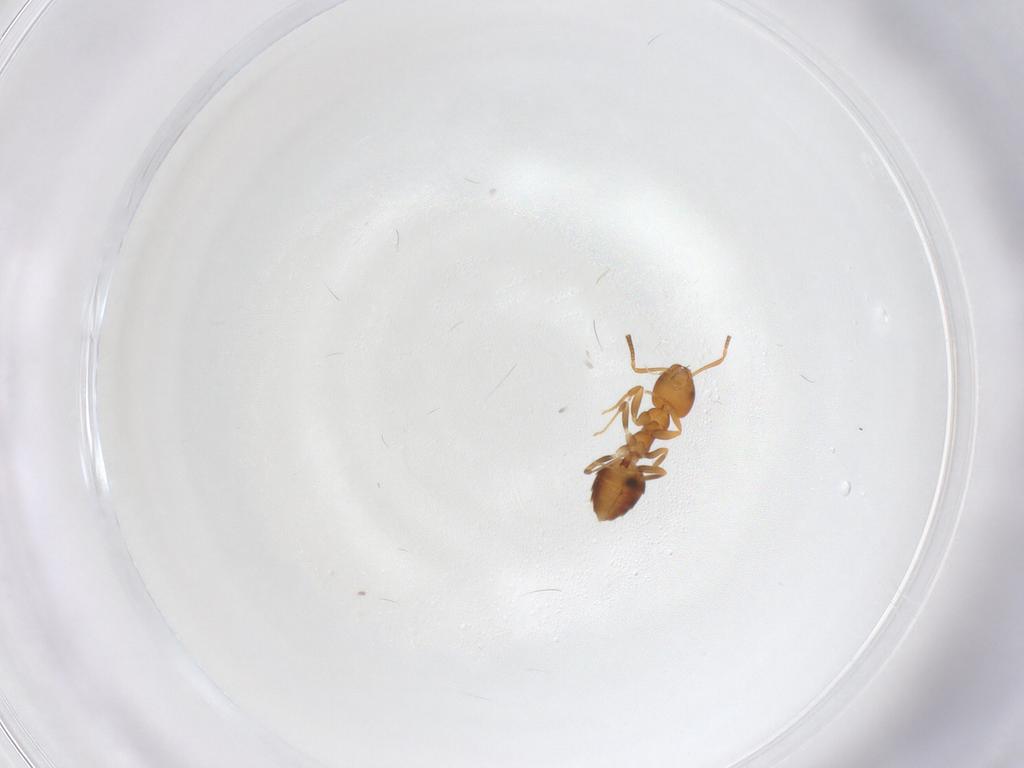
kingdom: Animalia
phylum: Arthropoda
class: Insecta
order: Hymenoptera
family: Formicidae
